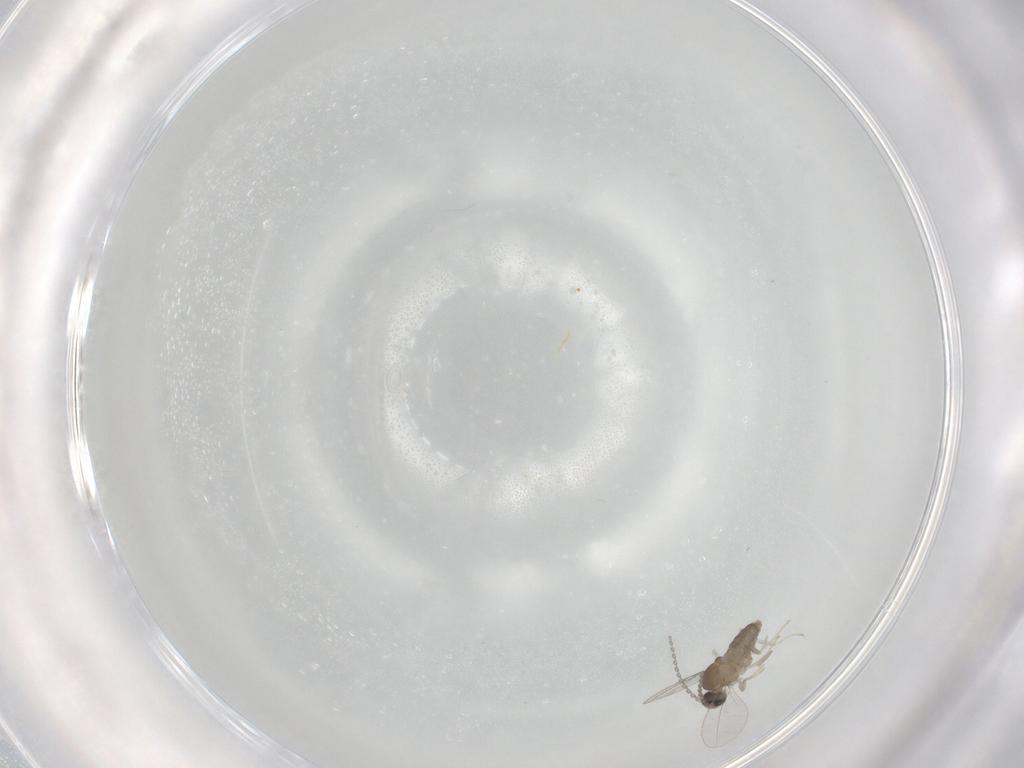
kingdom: Animalia
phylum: Arthropoda
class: Insecta
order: Diptera
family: Cecidomyiidae
